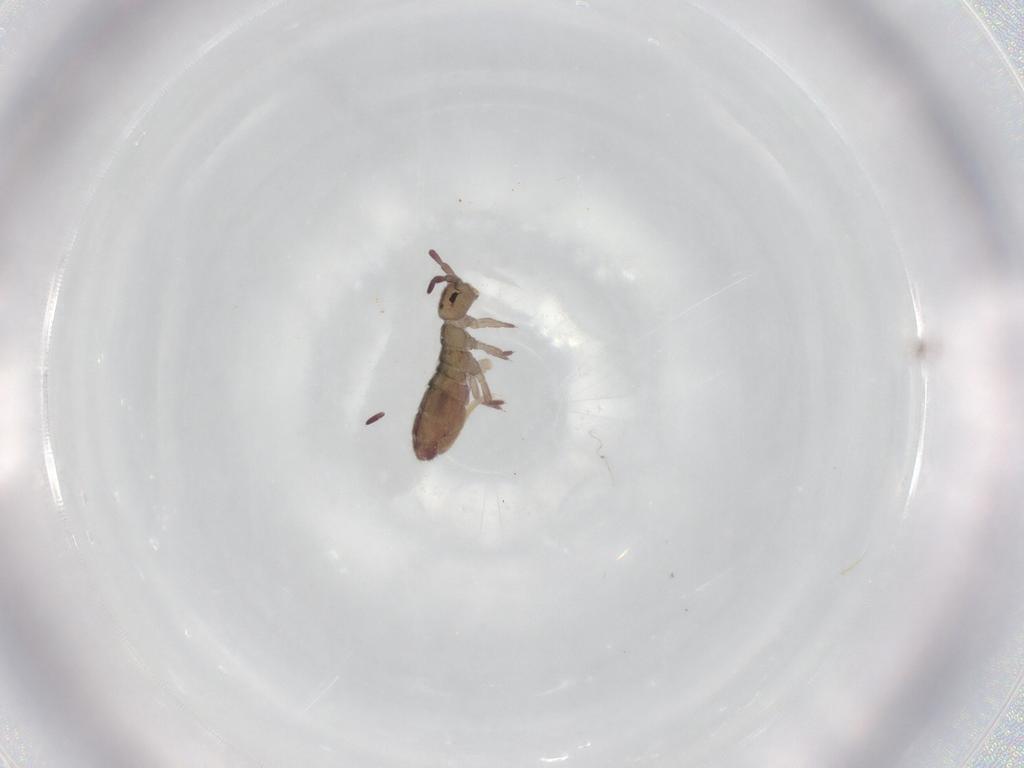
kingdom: Animalia
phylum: Arthropoda
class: Collembola
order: Entomobryomorpha
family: Isotomidae
